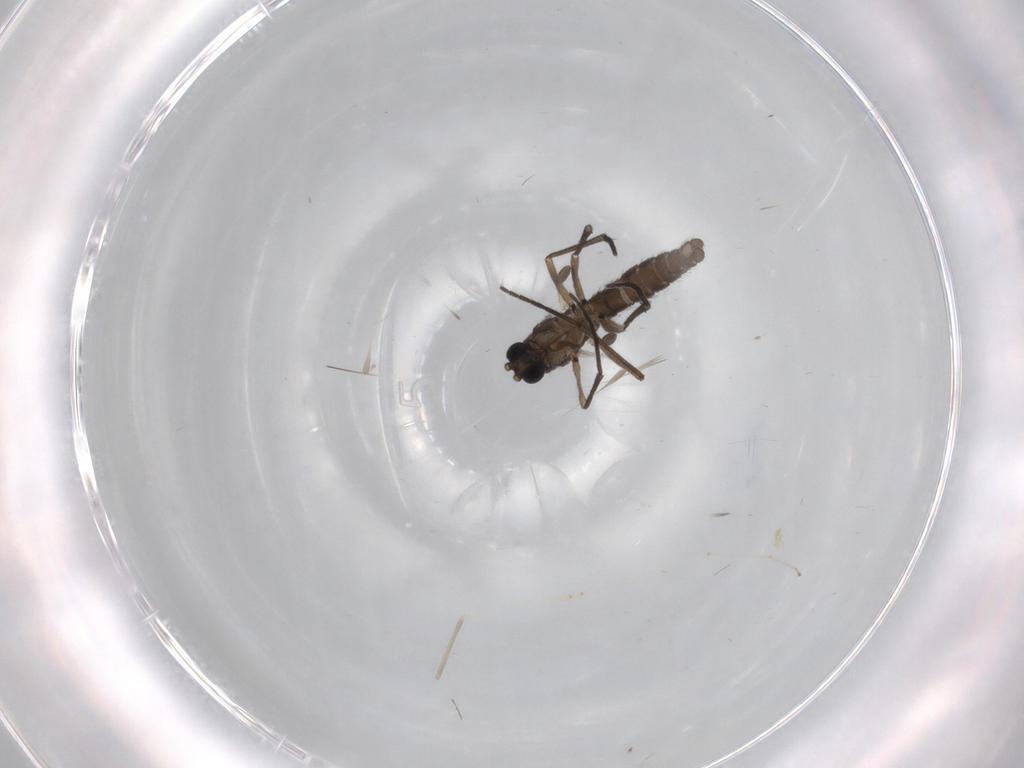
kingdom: Animalia
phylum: Arthropoda
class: Insecta
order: Diptera
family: Sciaridae
